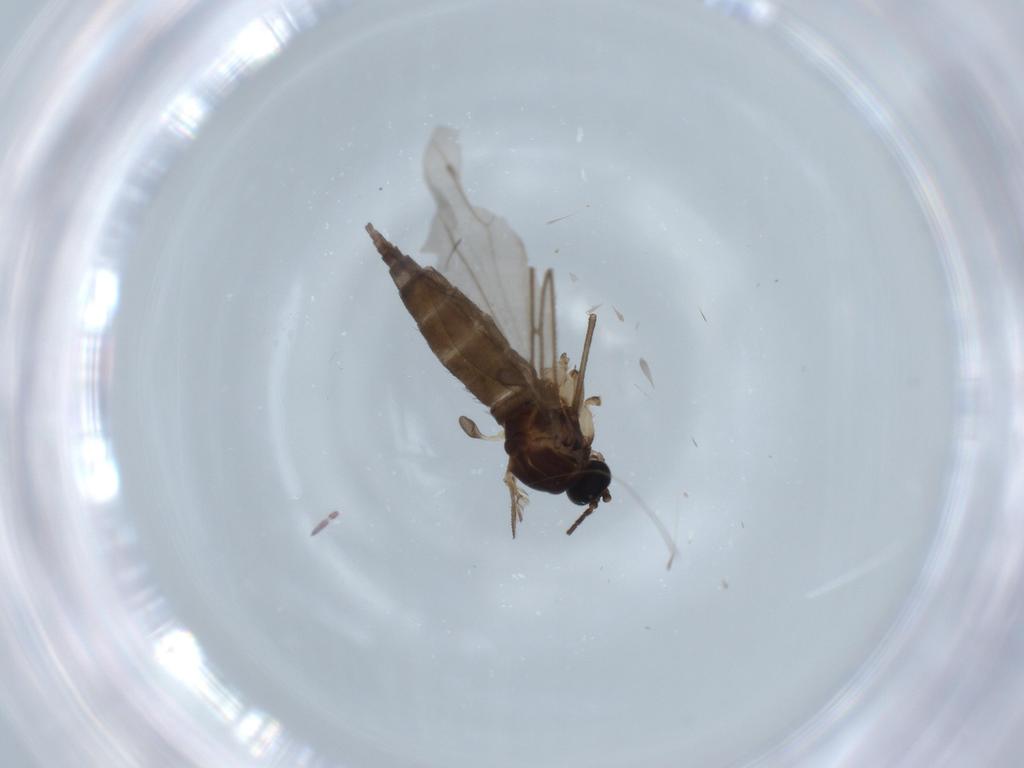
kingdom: Animalia
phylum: Arthropoda
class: Insecta
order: Diptera
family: Sciaridae
